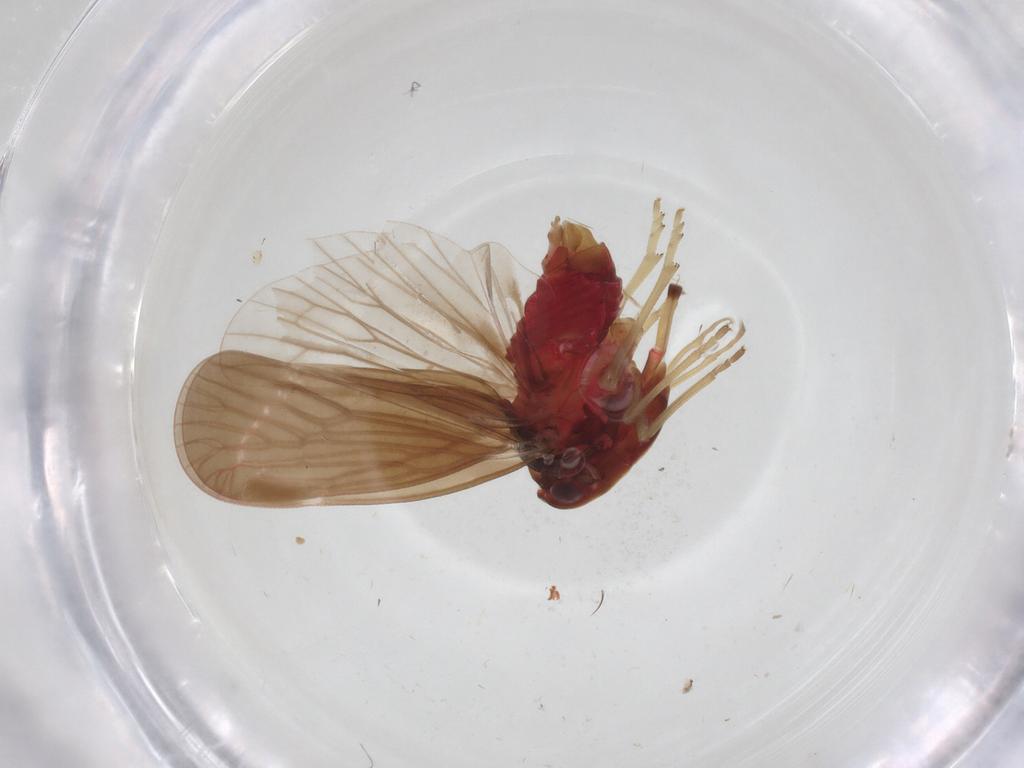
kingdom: Animalia
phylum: Arthropoda
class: Insecta
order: Hemiptera
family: Derbidae
